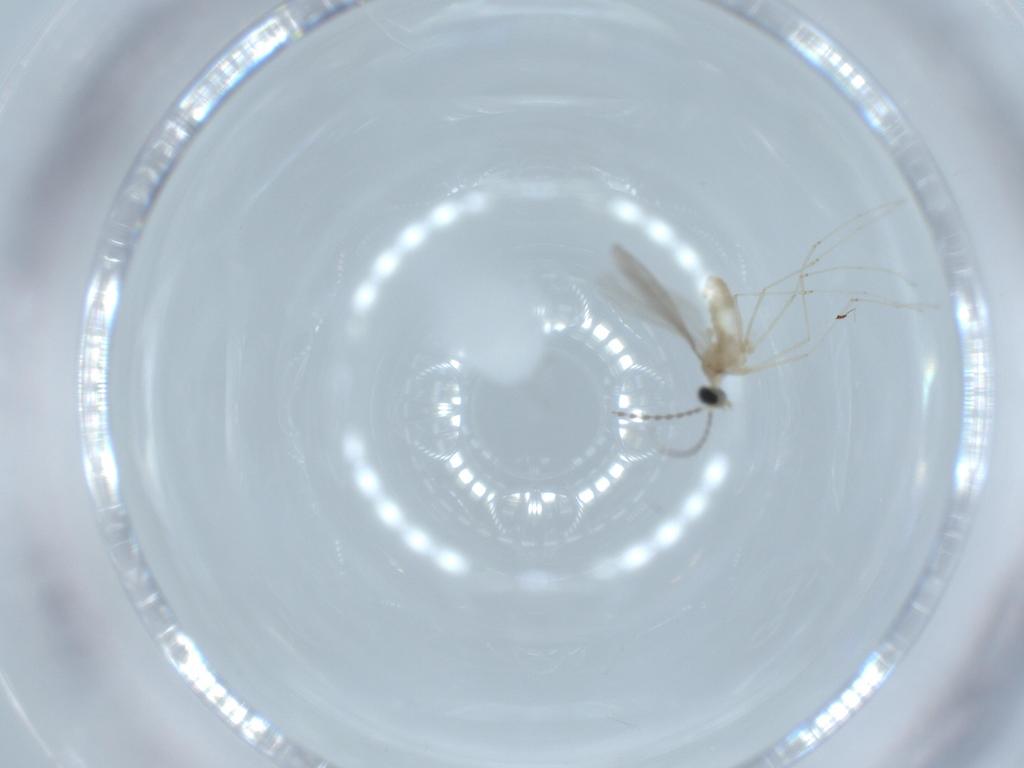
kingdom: Animalia
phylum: Arthropoda
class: Insecta
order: Diptera
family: Cecidomyiidae
